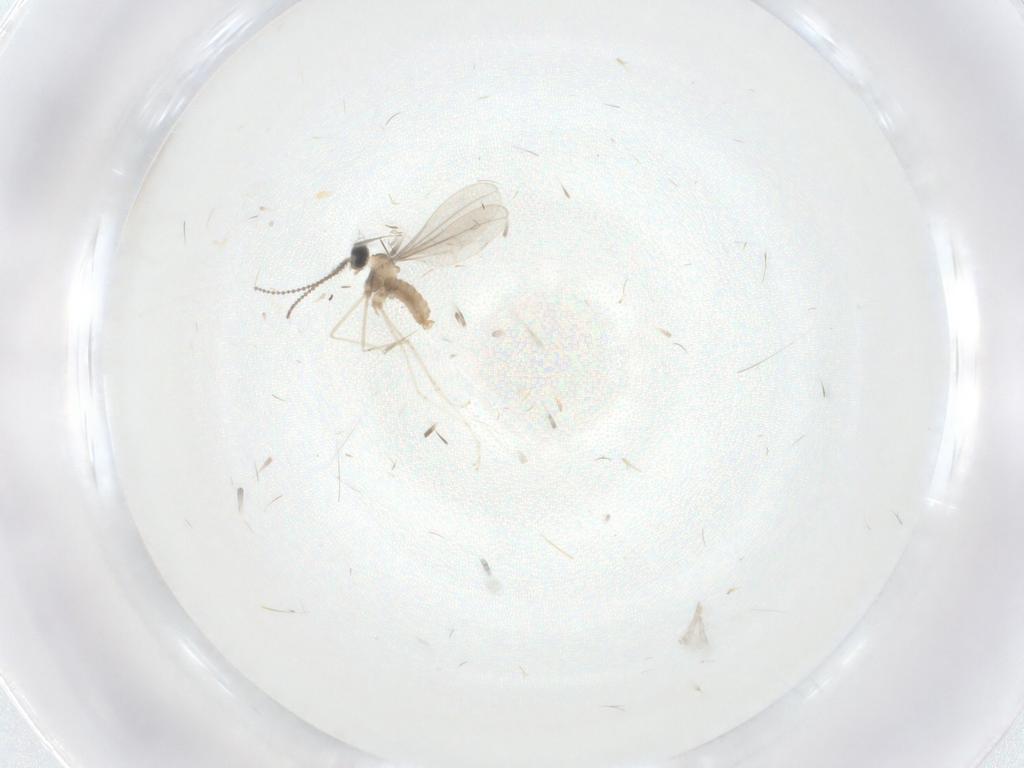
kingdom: Animalia
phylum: Arthropoda
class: Insecta
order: Diptera
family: Cecidomyiidae
